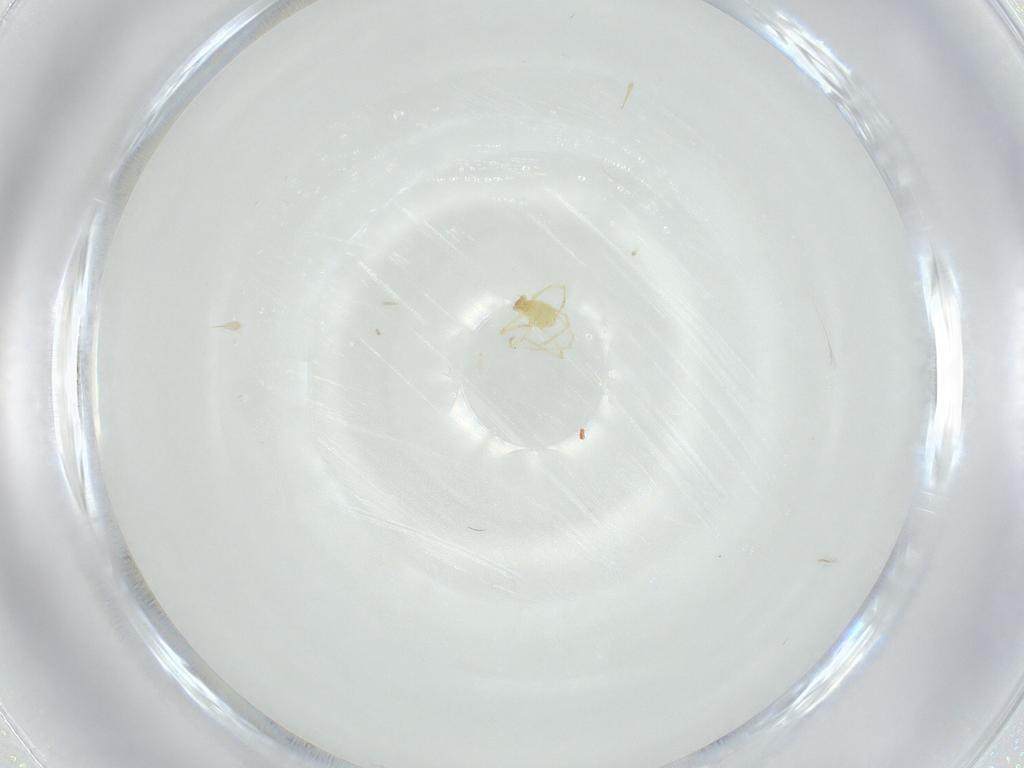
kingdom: Animalia
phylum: Arthropoda
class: Arachnida
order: Trombidiformes
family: Erythraeidae
